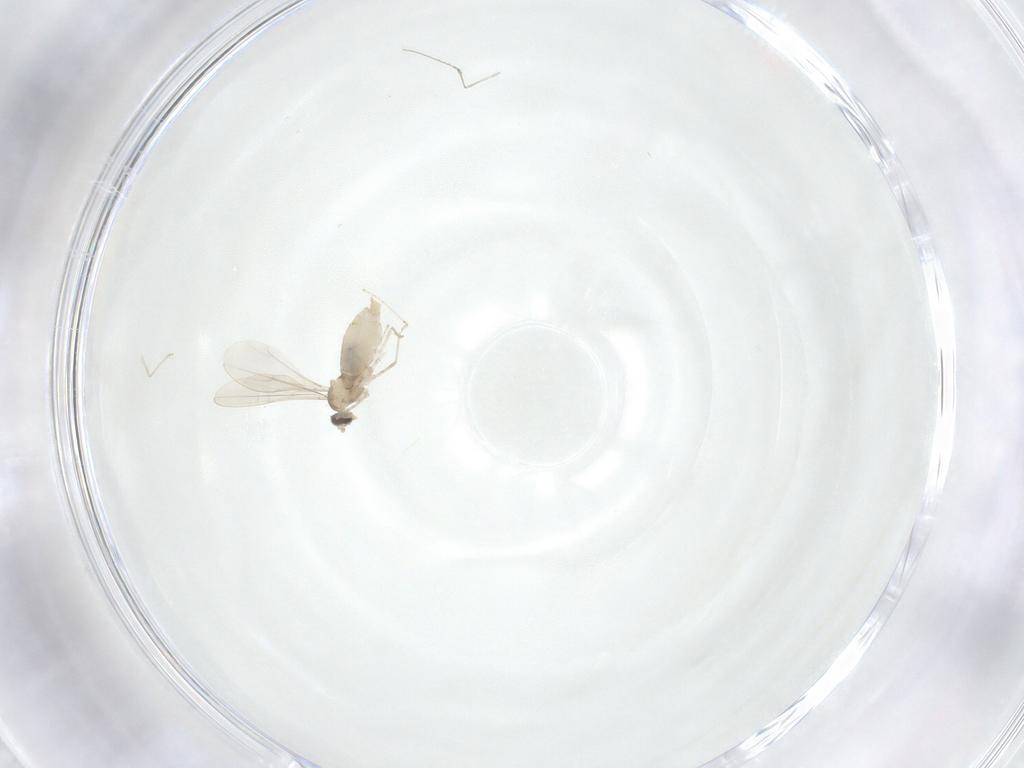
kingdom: Animalia
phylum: Arthropoda
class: Insecta
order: Diptera
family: Cecidomyiidae
